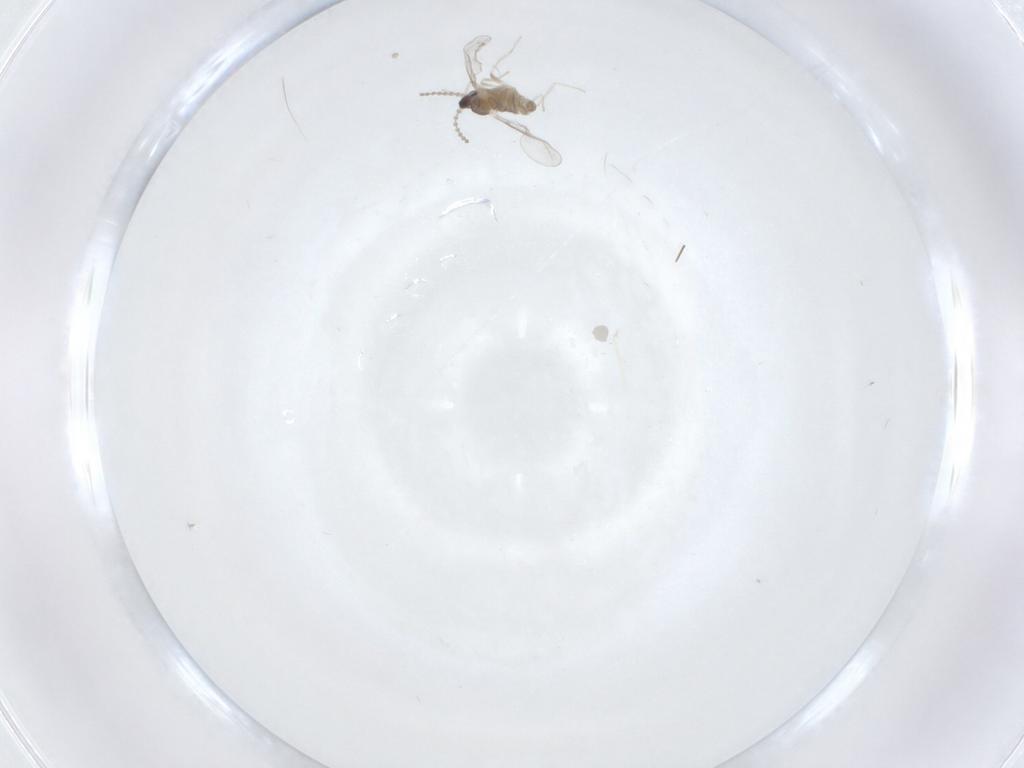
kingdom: Animalia
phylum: Arthropoda
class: Insecta
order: Diptera
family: Cecidomyiidae
